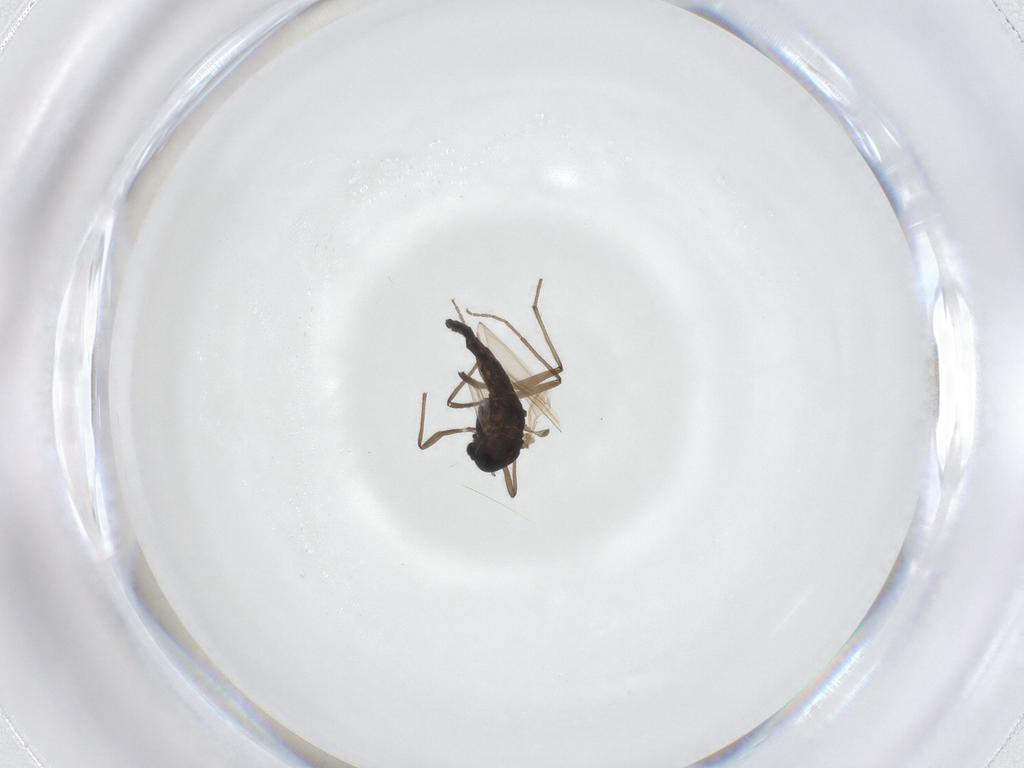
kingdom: Animalia
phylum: Arthropoda
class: Insecta
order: Diptera
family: Chironomidae
